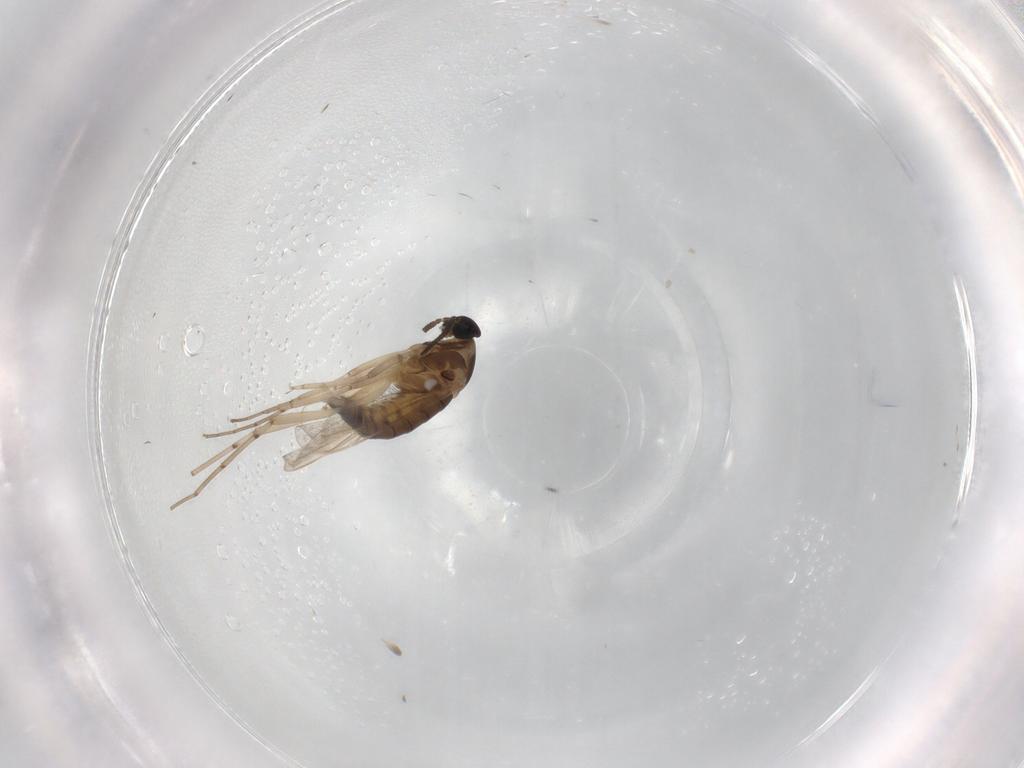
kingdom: Animalia
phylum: Arthropoda
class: Insecta
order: Diptera
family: Cecidomyiidae
